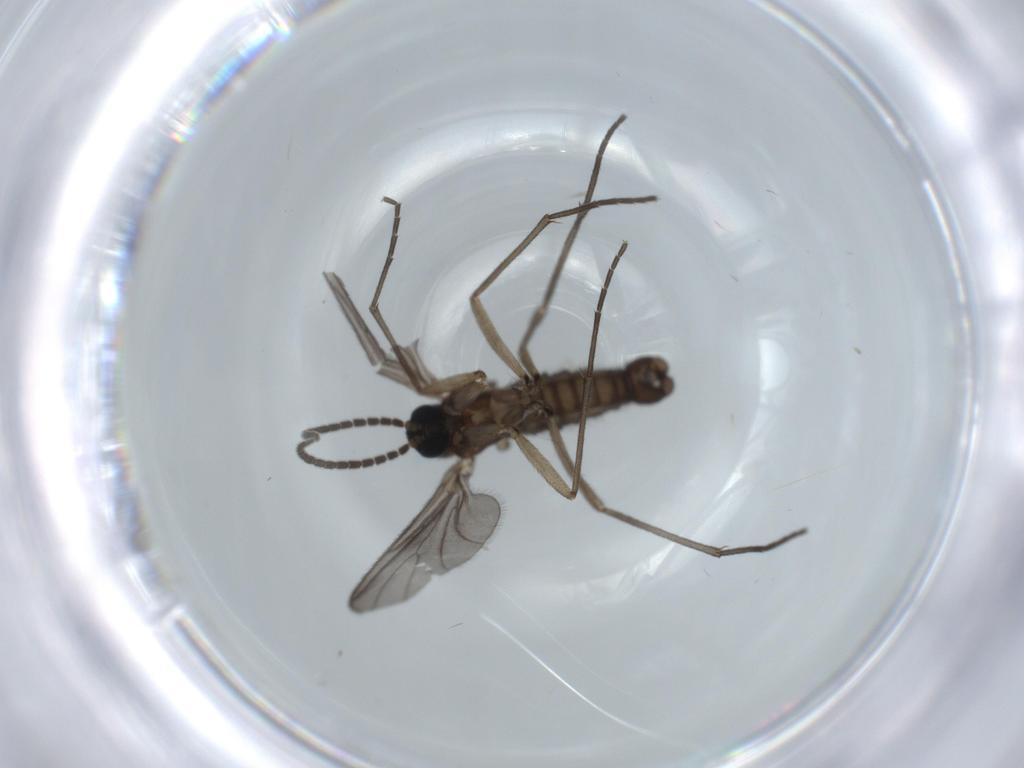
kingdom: Animalia
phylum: Arthropoda
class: Insecta
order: Diptera
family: Sciaridae
